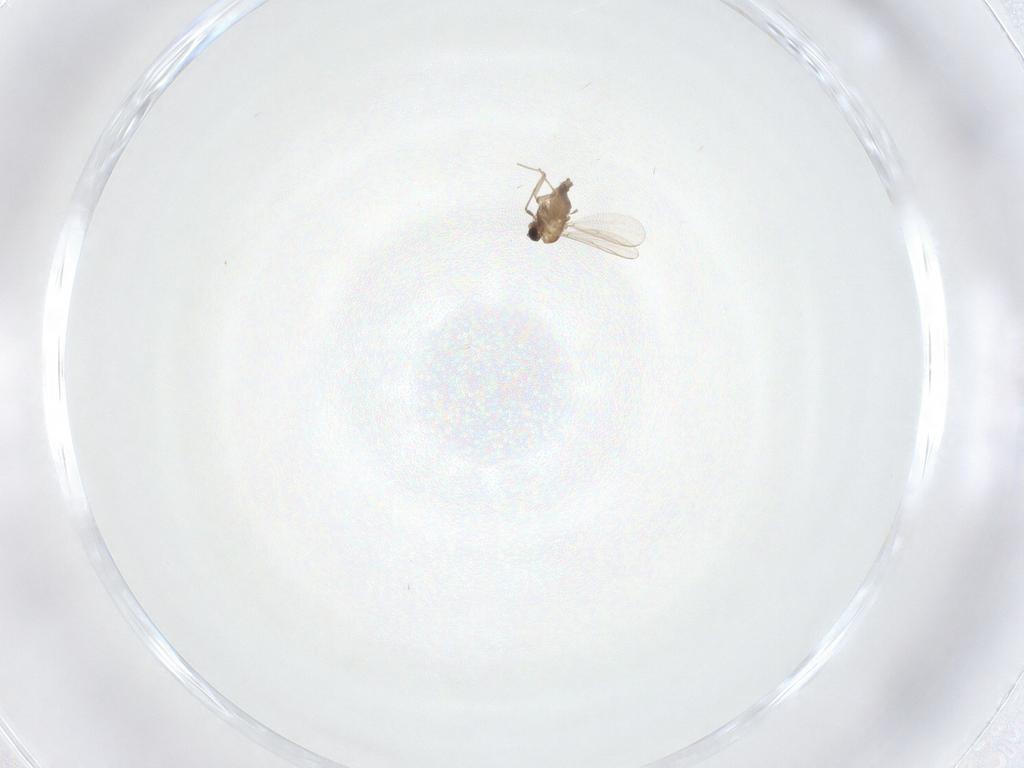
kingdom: Animalia
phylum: Arthropoda
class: Insecta
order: Diptera
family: Chironomidae
